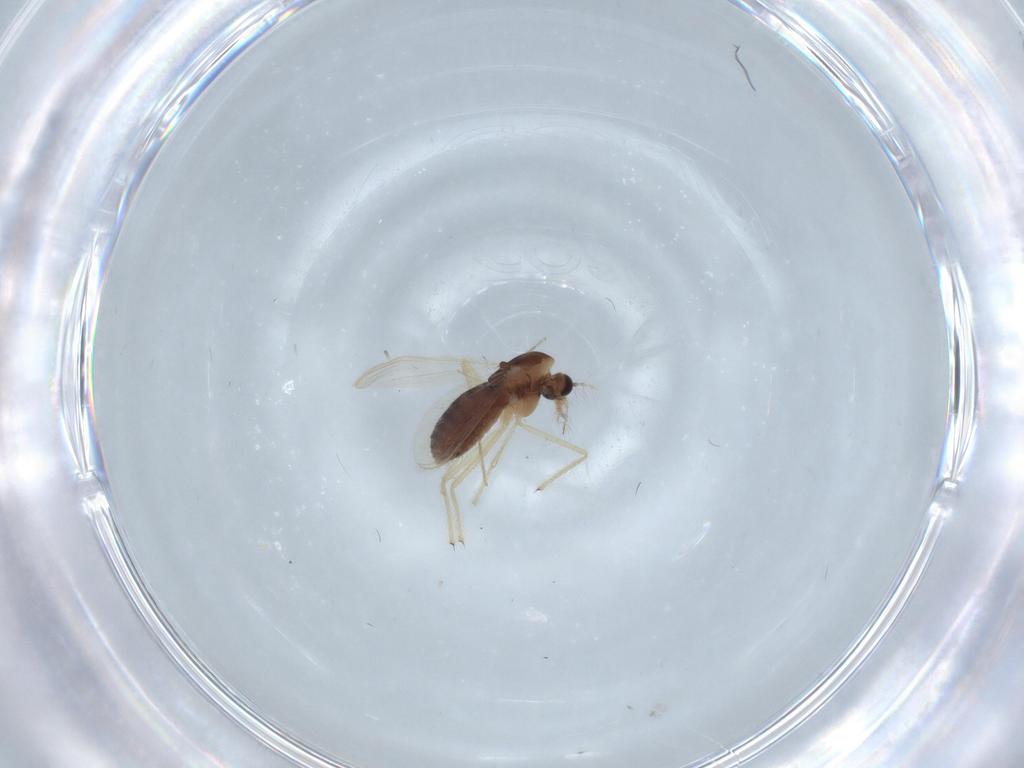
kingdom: Animalia
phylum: Arthropoda
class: Insecta
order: Diptera
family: Chironomidae
